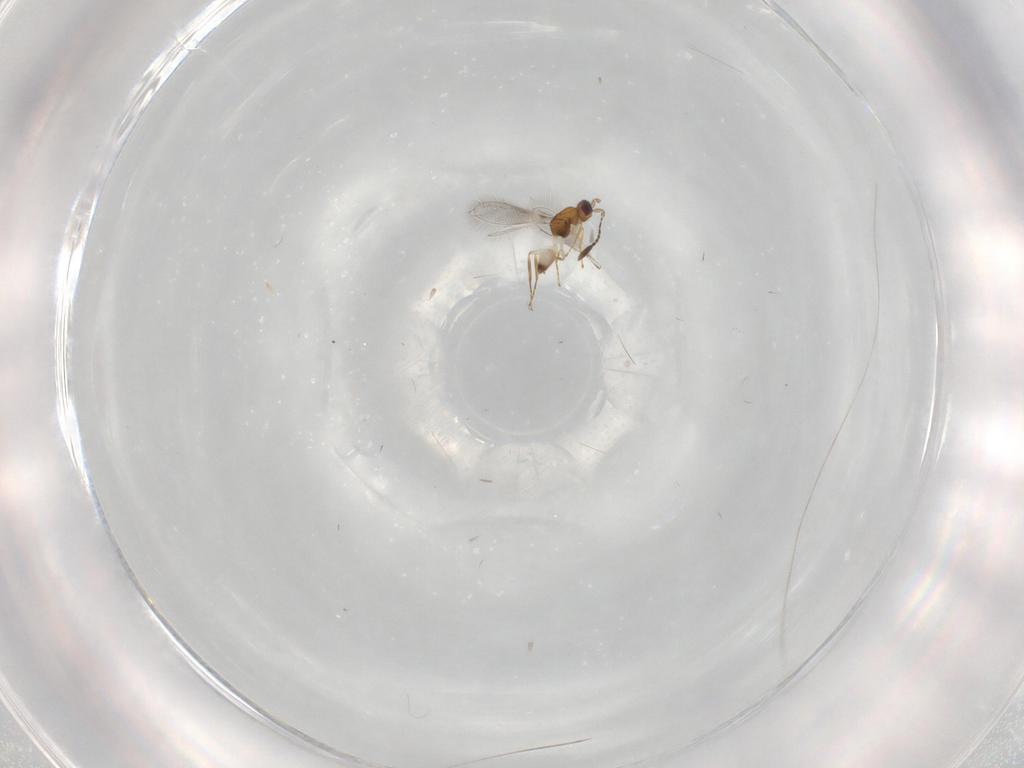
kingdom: Animalia
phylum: Arthropoda
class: Insecta
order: Hymenoptera
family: Mymaridae
